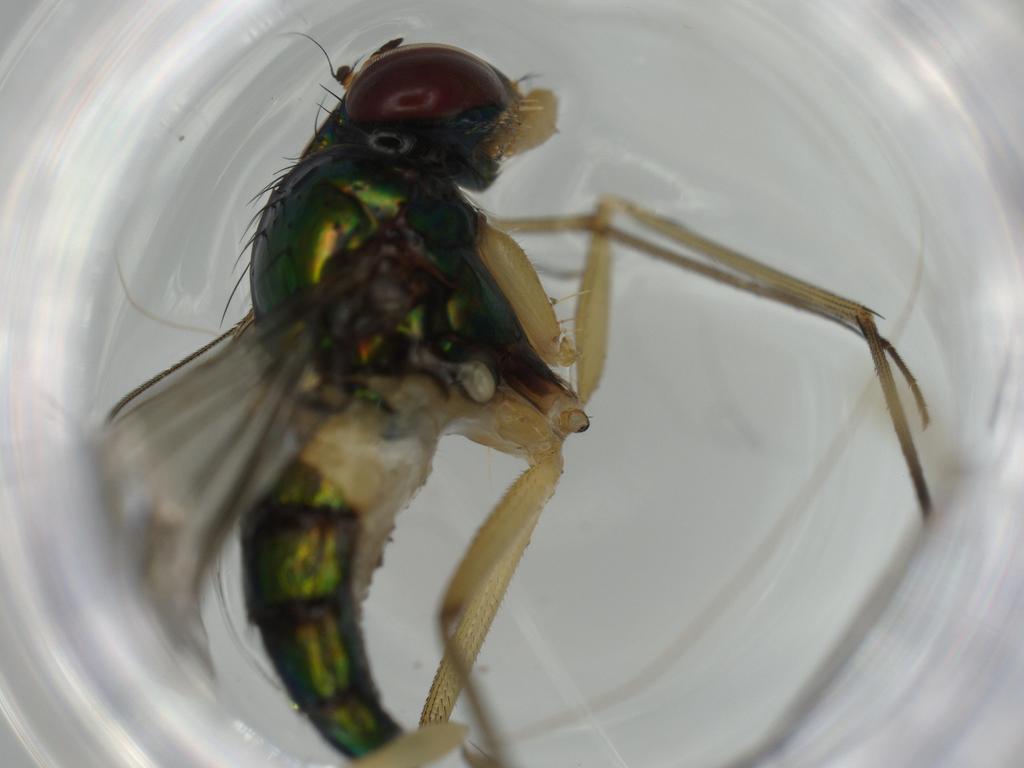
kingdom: Animalia
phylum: Arthropoda
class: Insecta
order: Diptera
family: Dolichopodidae
